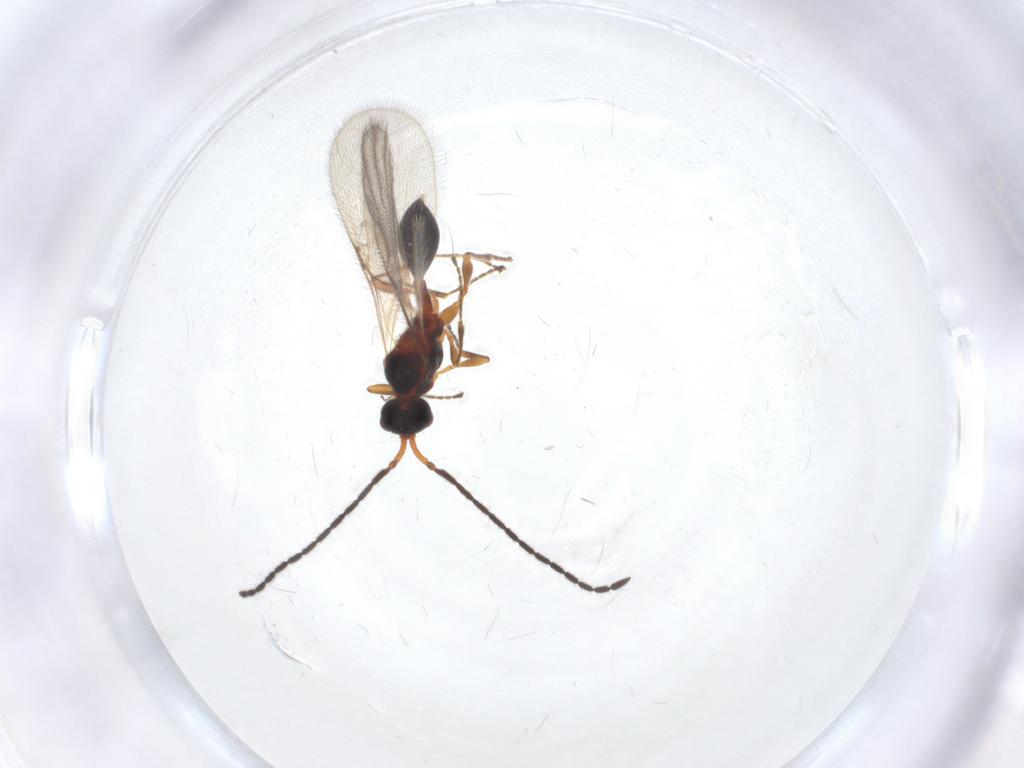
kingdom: Animalia
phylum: Arthropoda
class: Insecta
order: Hymenoptera
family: Diapriidae
